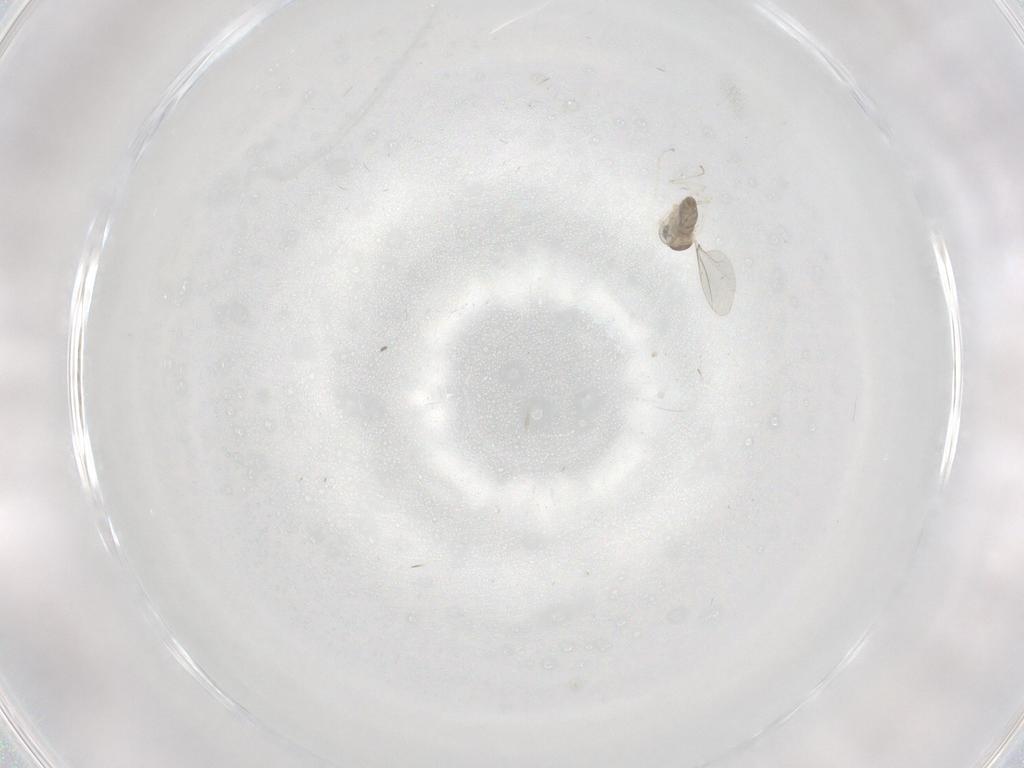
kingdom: Animalia
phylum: Arthropoda
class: Insecta
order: Diptera
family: Cecidomyiidae
